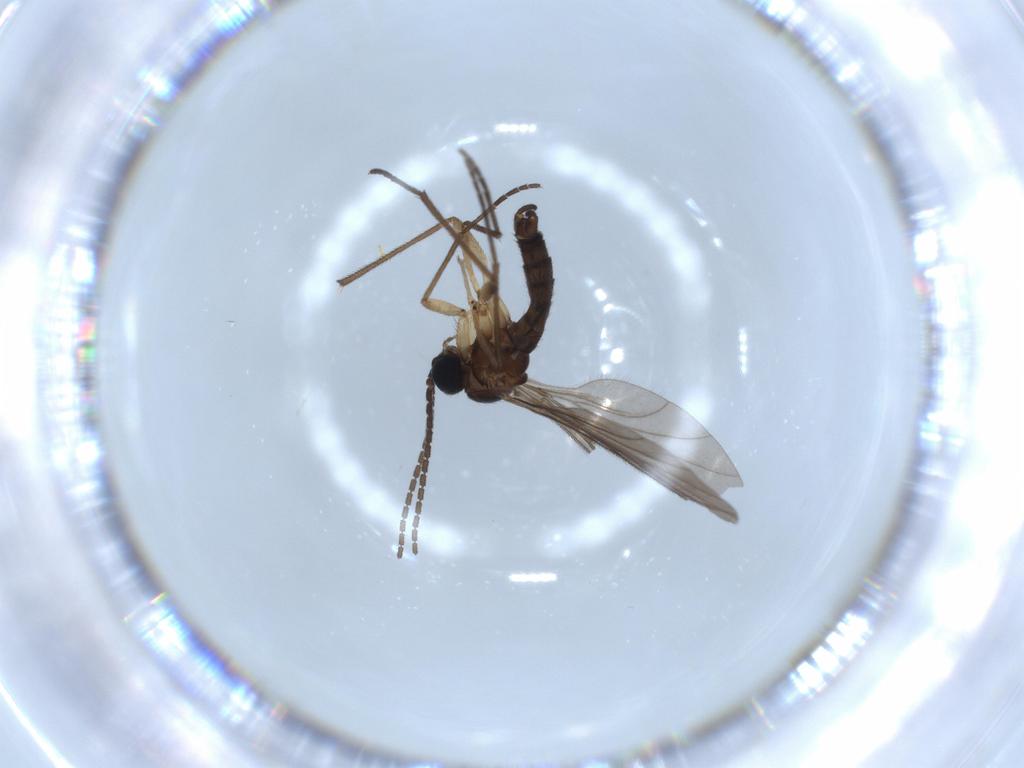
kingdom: Animalia
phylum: Arthropoda
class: Insecta
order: Diptera
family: Sciaridae
